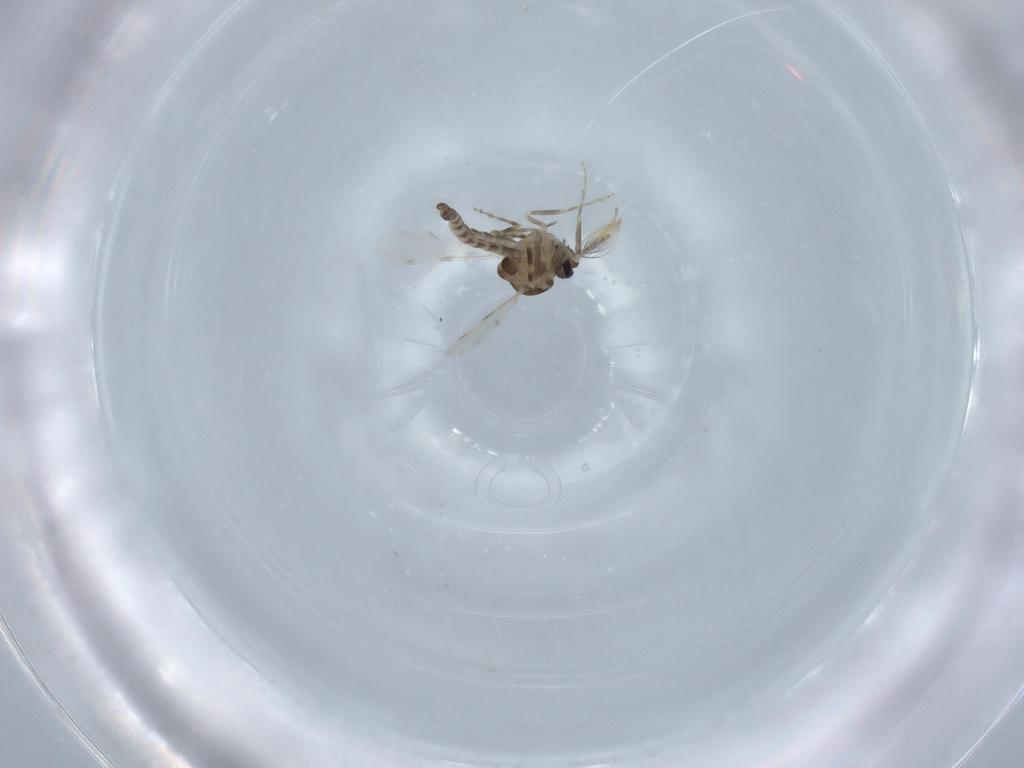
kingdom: Animalia
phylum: Arthropoda
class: Insecta
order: Diptera
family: Ceratopogonidae
